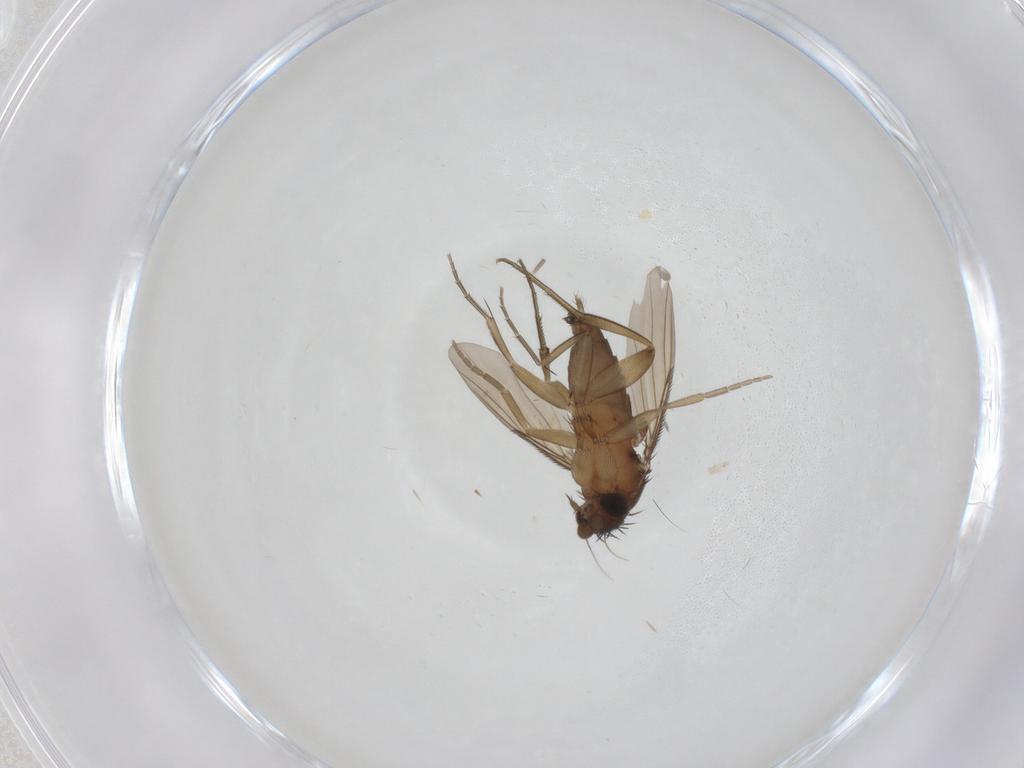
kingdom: Animalia
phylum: Arthropoda
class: Insecta
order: Diptera
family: Phoridae
